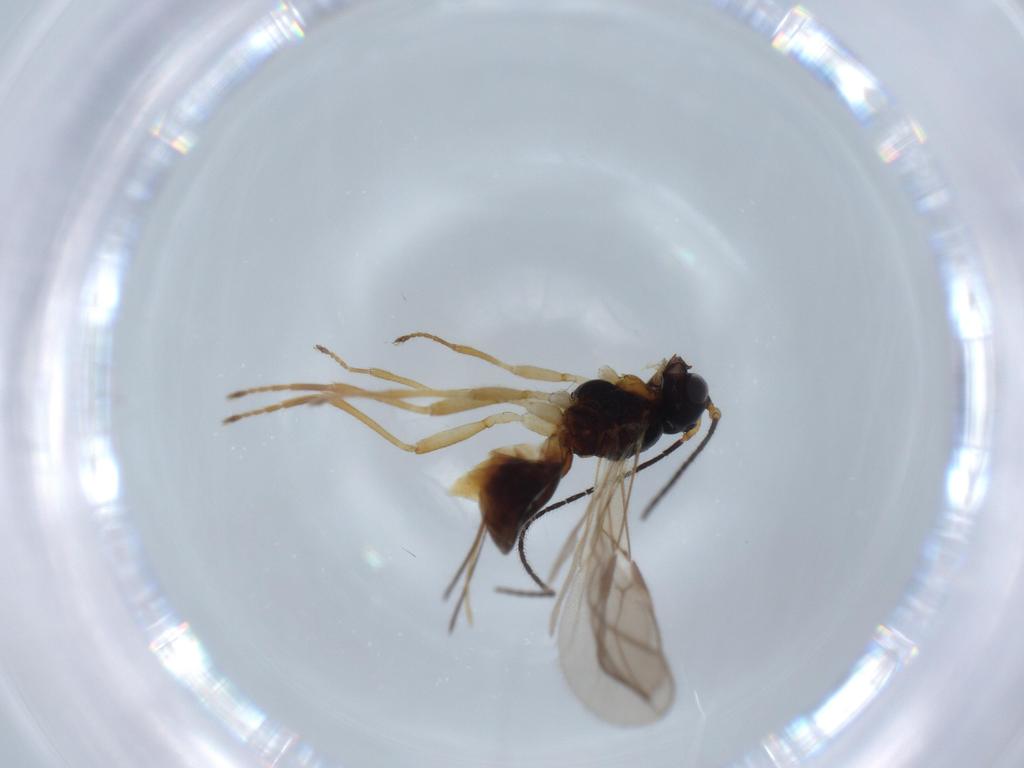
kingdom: Animalia
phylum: Arthropoda
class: Insecta
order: Hymenoptera
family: Braconidae
